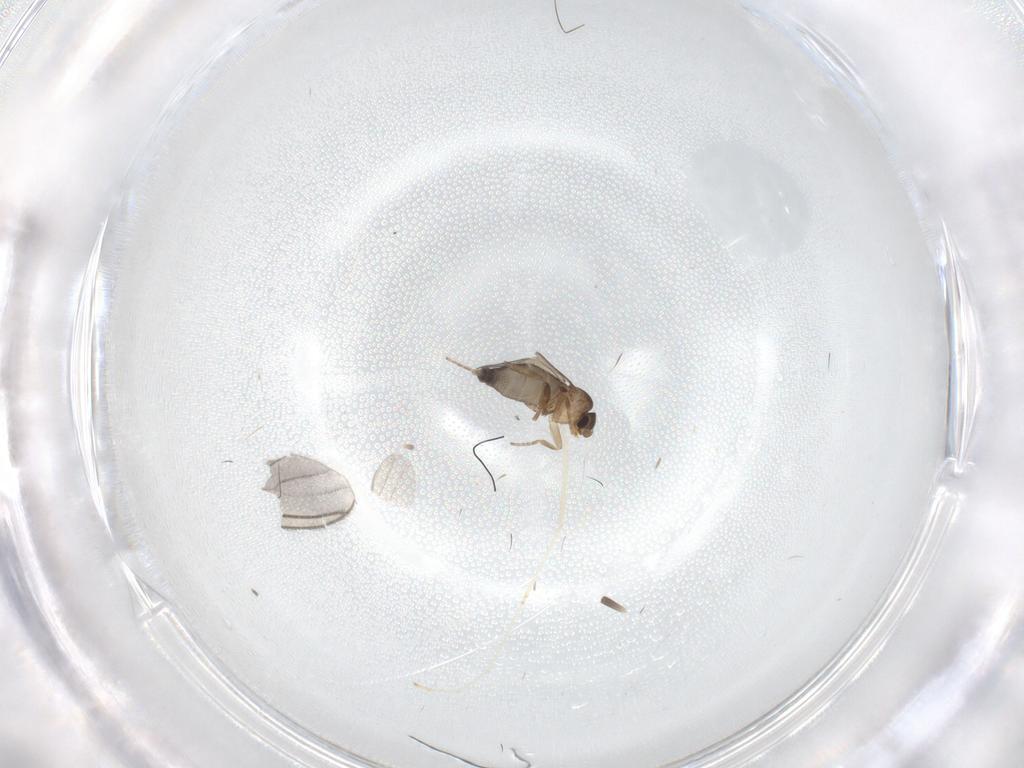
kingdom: Animalia
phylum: Arthropoda
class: Insecta
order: Diptera
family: Phoridae
